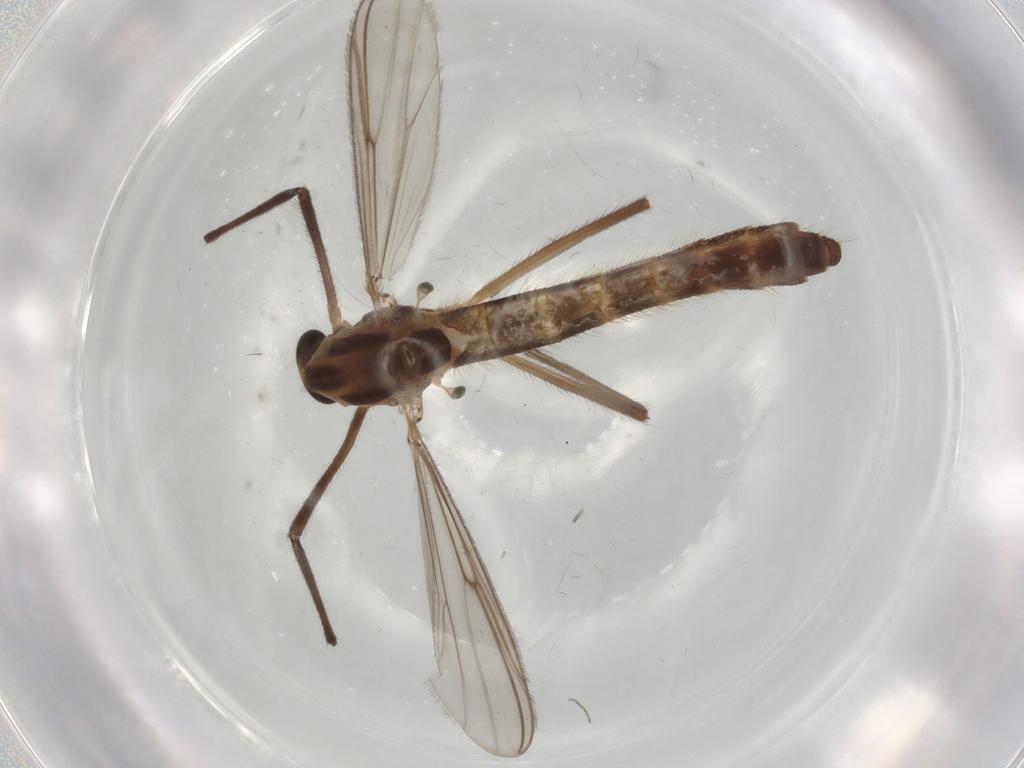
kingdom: Animalia
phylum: Arthropoda
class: Insecta
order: Diptera
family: Chironomidae
